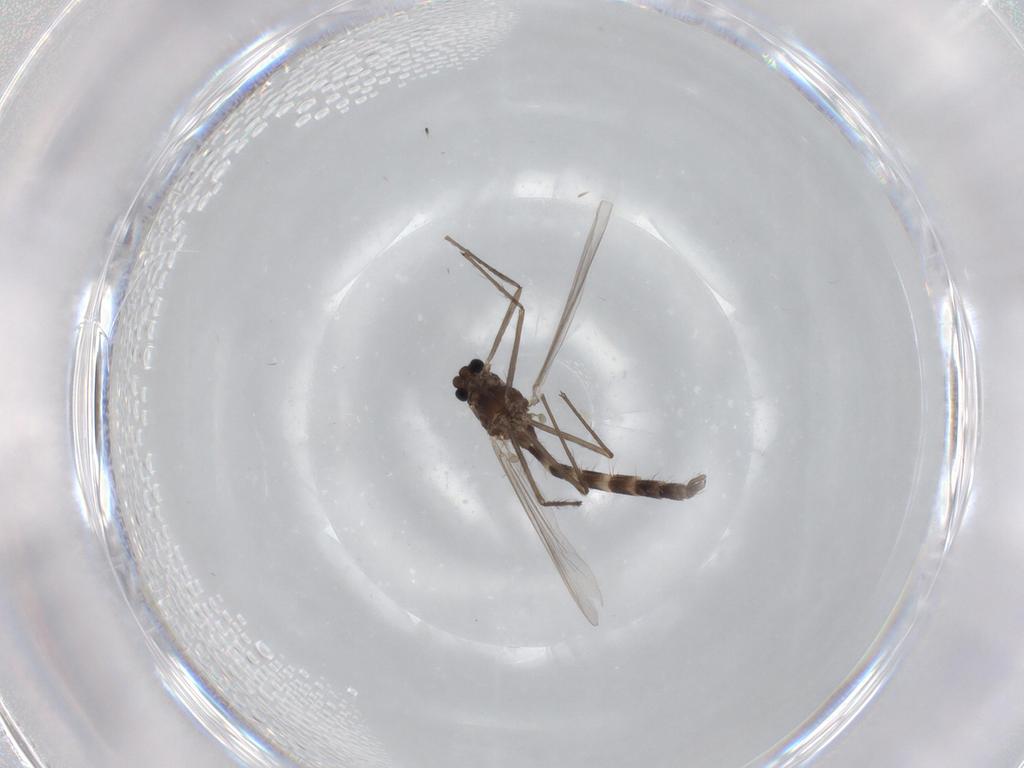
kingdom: Animalia
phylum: Arthropoda
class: Insecta
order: Diptera
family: Chironomidae
